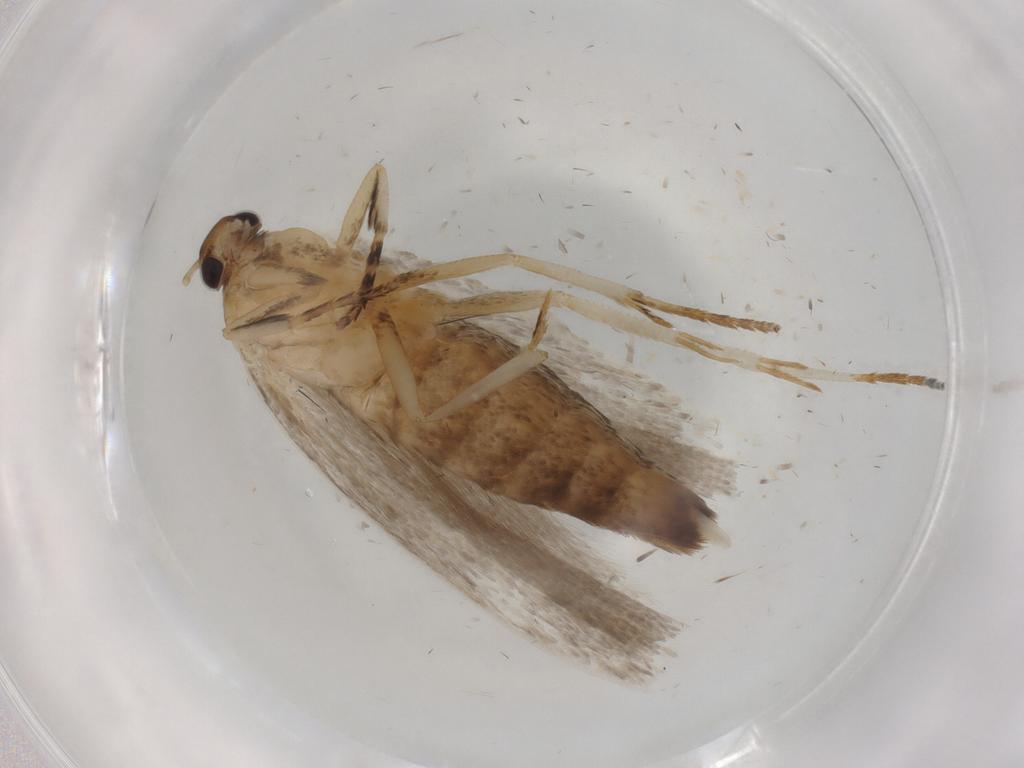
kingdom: Animalia
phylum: Arthropoda
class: Insecta
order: Lepidoptera
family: Gelechiidae
